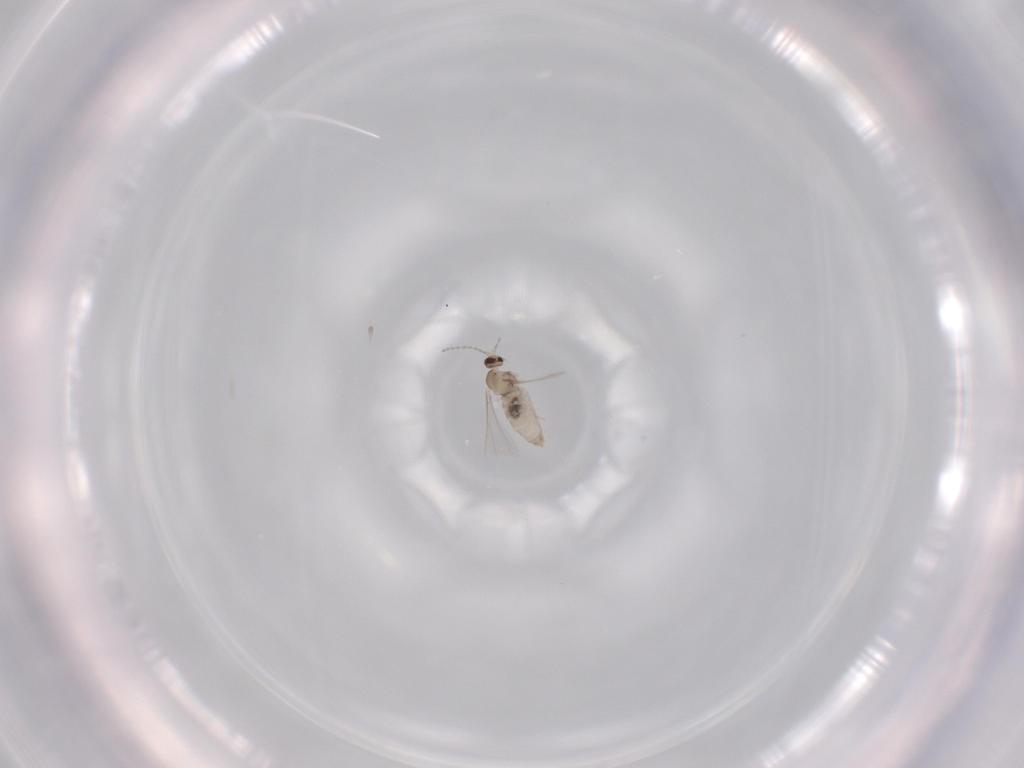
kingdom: Animalia
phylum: Arthropoda
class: Insecta
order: Diptera
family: Cecidomyiidae
